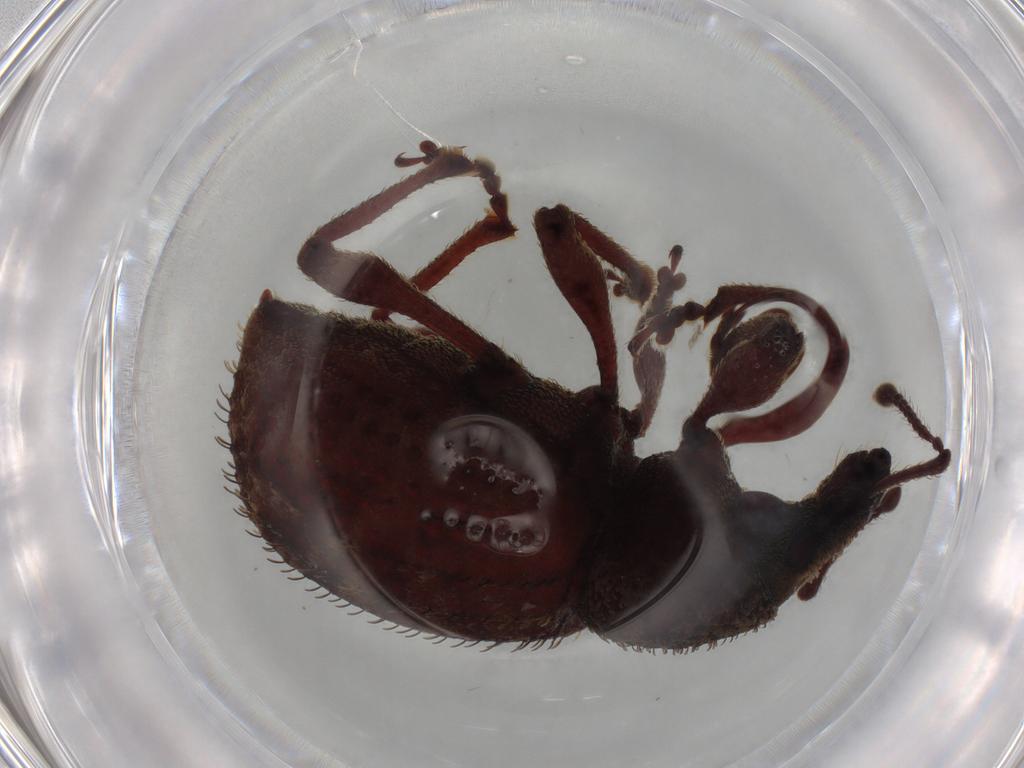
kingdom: Animalia
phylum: Arthropoda
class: Insecta
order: Coleoptera
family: Curculionidae
